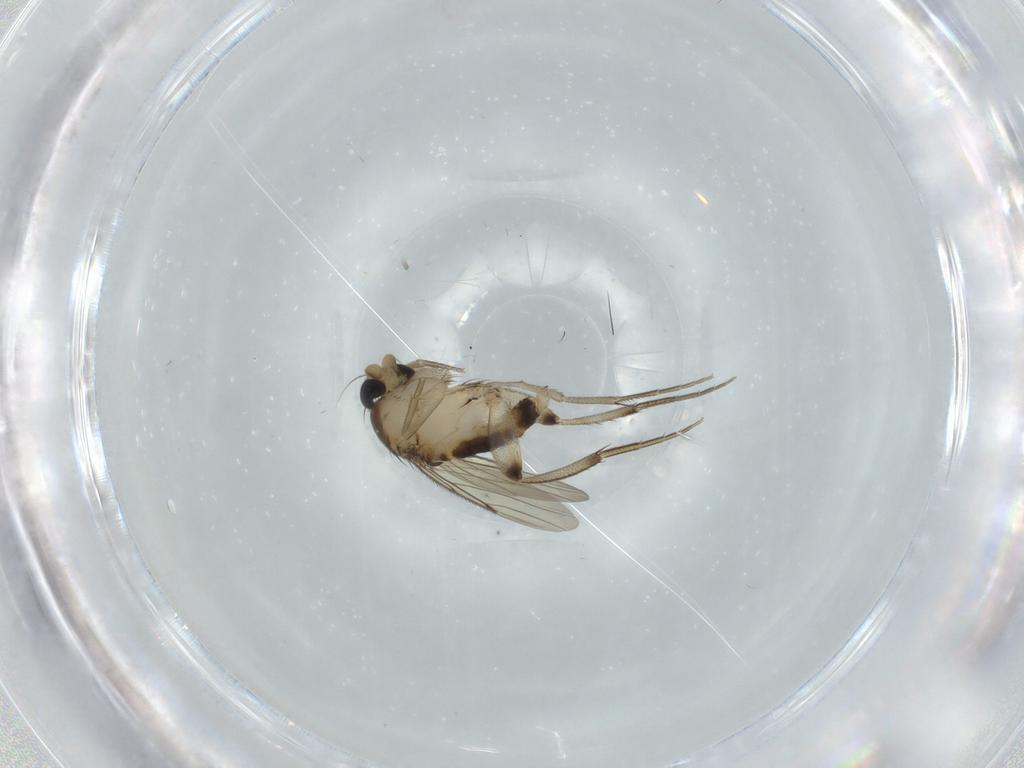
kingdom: Animalia
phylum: Arthropoda
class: Insecta
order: Diptera
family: Phoridae
